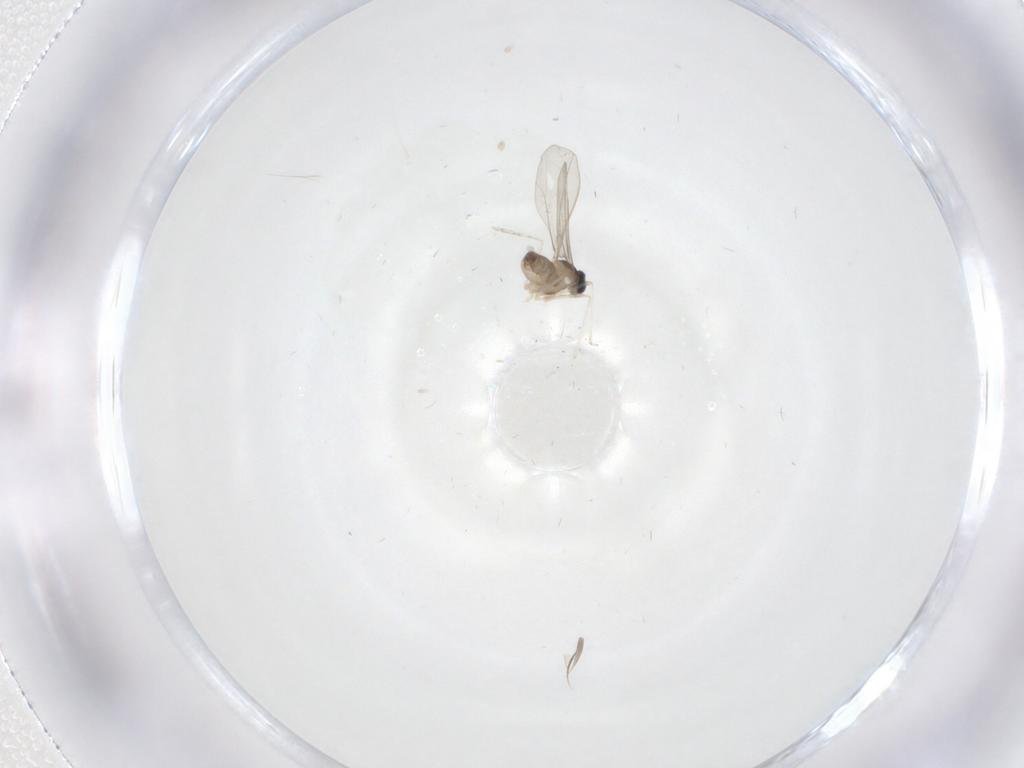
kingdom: Animalia
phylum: Arthropoda
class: Insecta
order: Diptera
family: Cecidomyiidae
